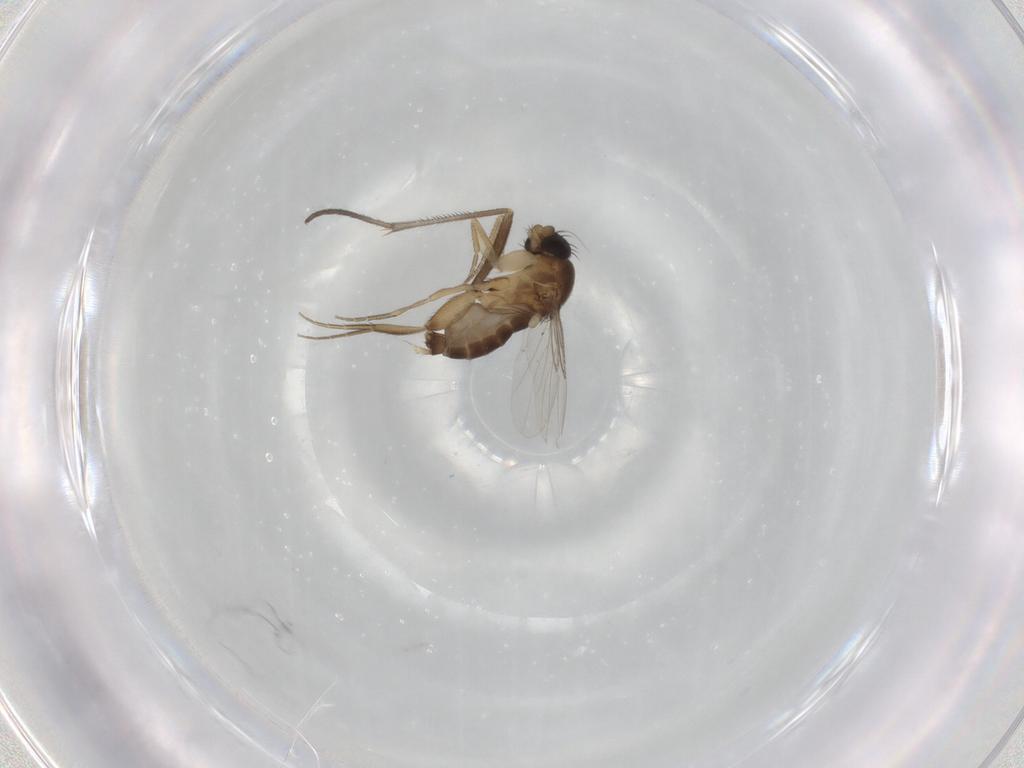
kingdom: Animalia
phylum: Arthropoda
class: Insecta
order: Diptera
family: Phoridae
